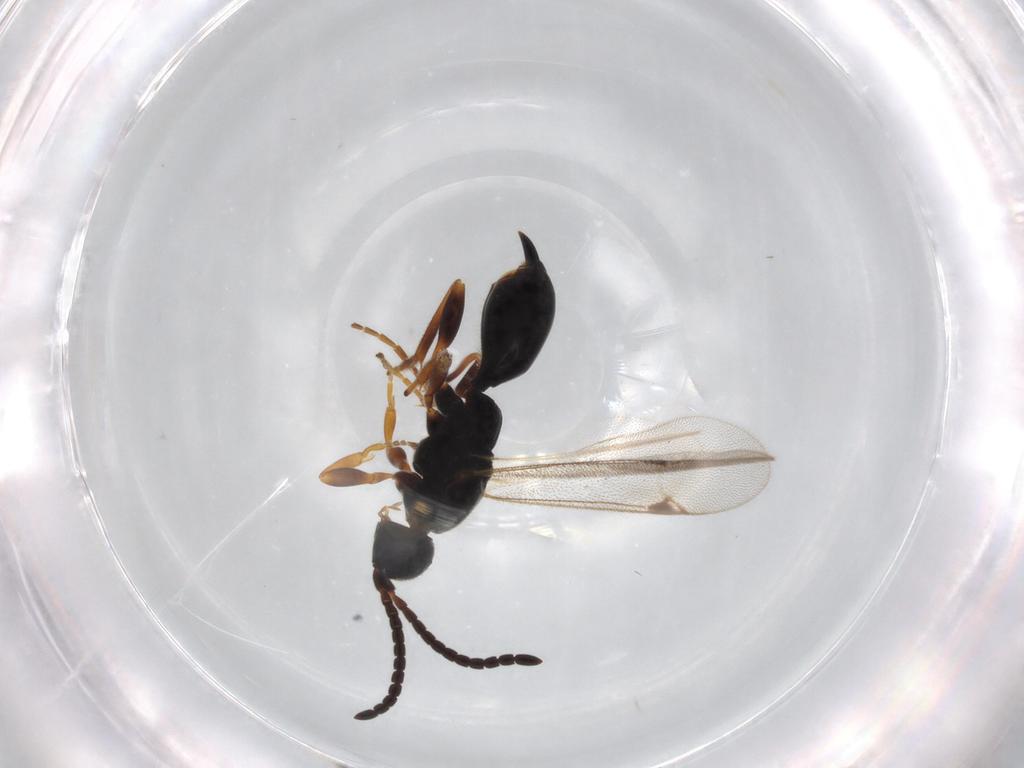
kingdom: Animalia
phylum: Arthropoda
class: Insecta
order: Hymenoptera
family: Proctotrupidae
